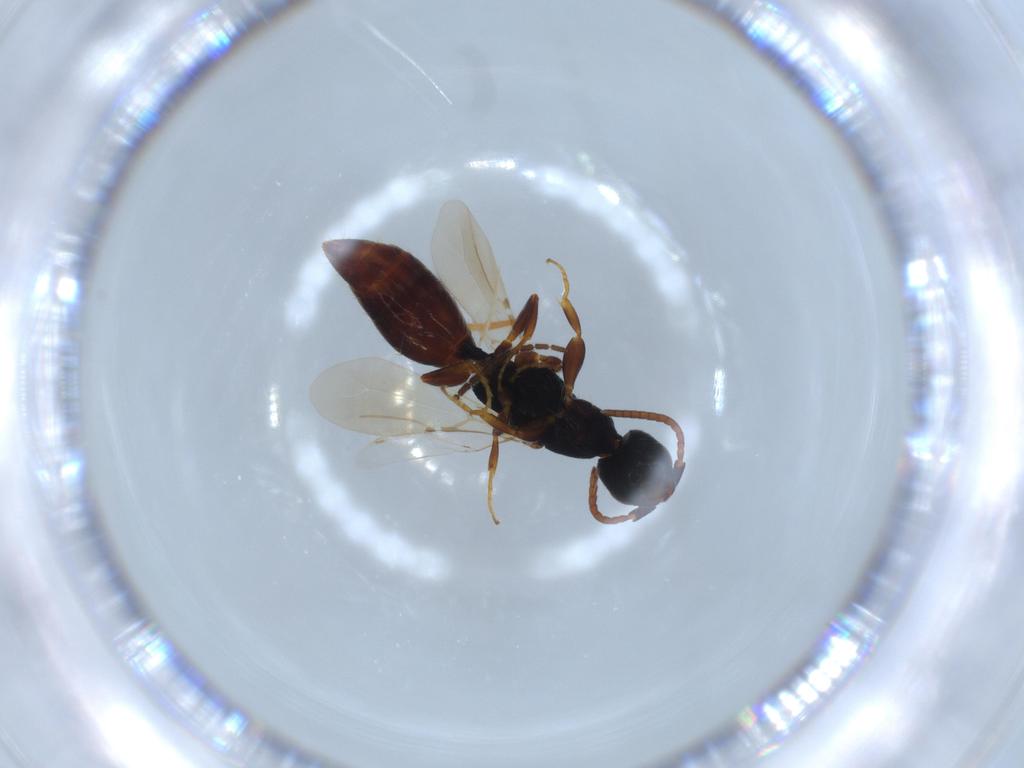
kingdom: Animalia
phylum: Arthropoda
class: Insecta
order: Hymenoptera
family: Bethylidae
